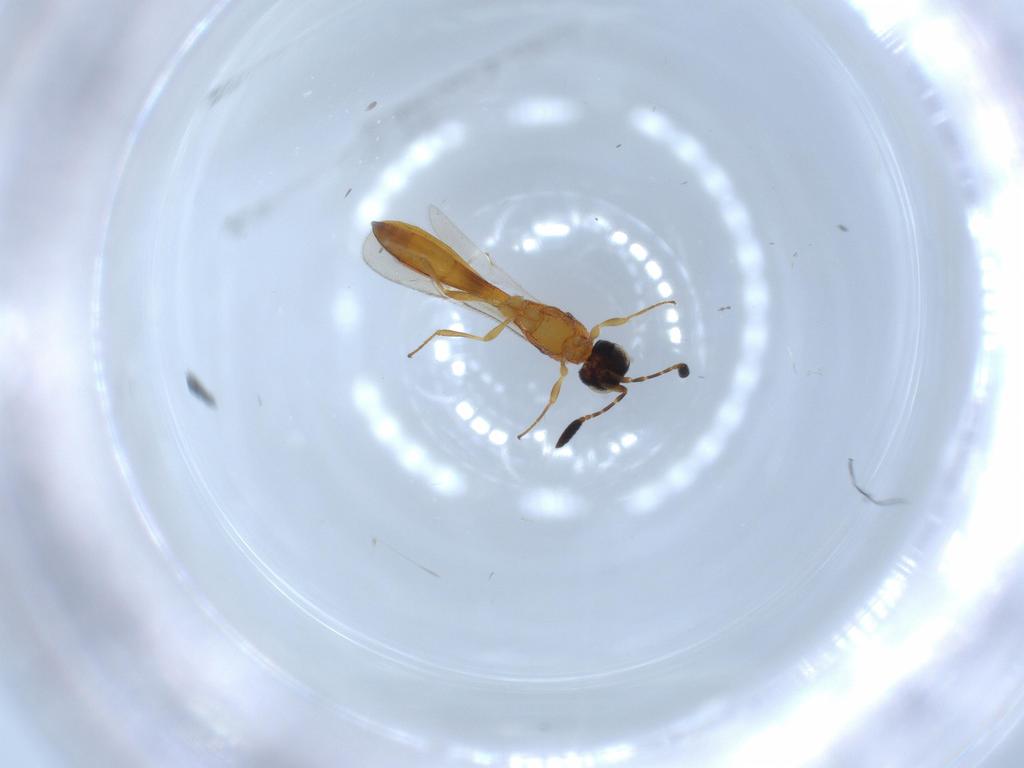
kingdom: Animalia
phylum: Arthropoda
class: Insecta
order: Hymenoptera
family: Scelionidae
